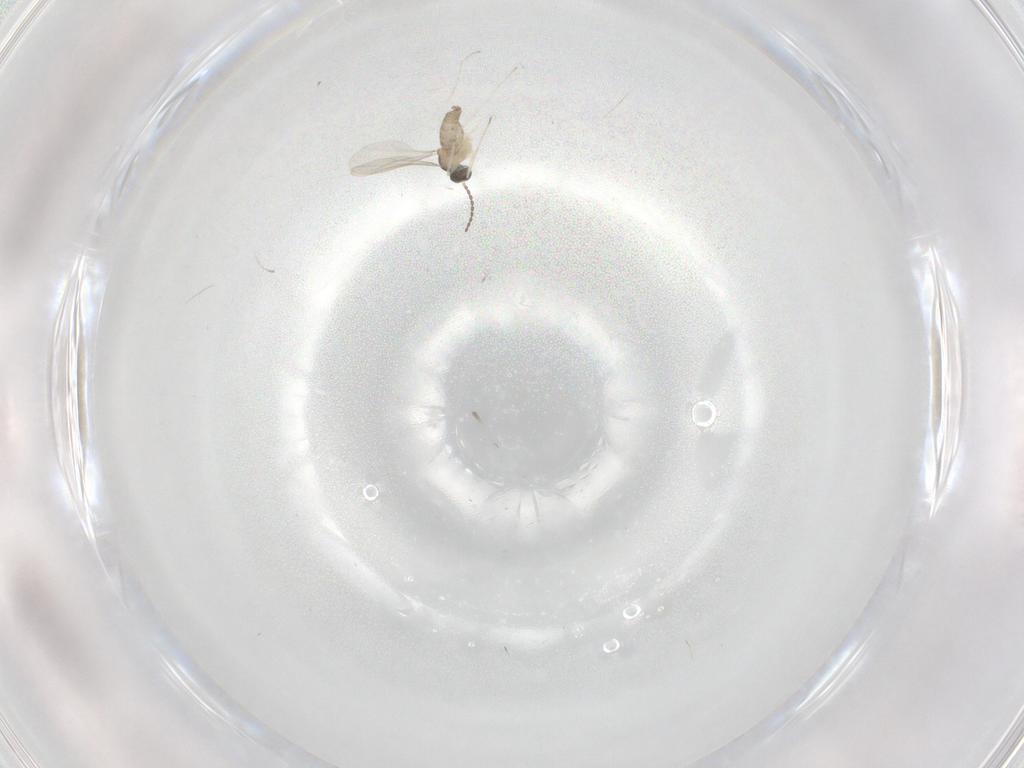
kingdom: Animalia
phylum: Arthropoda
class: Insecta
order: Diptera
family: Cecidomyiidae
